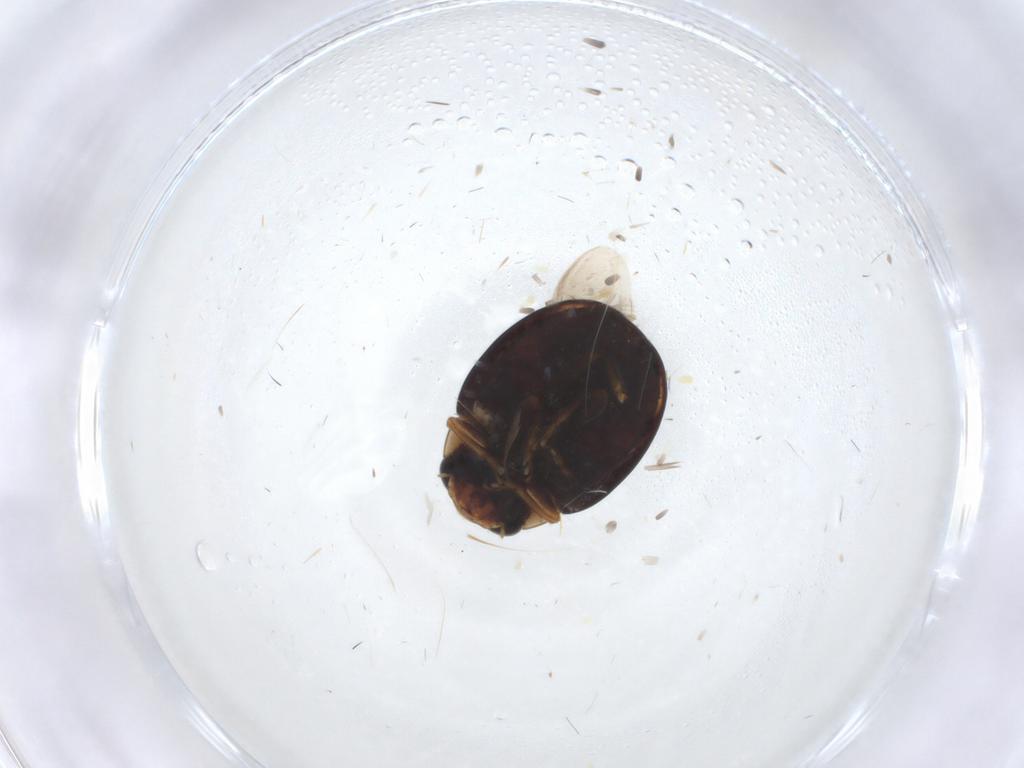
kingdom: Animalia
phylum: Arthropoda
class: Insecta
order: Coleoptera
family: Coccinellidae
